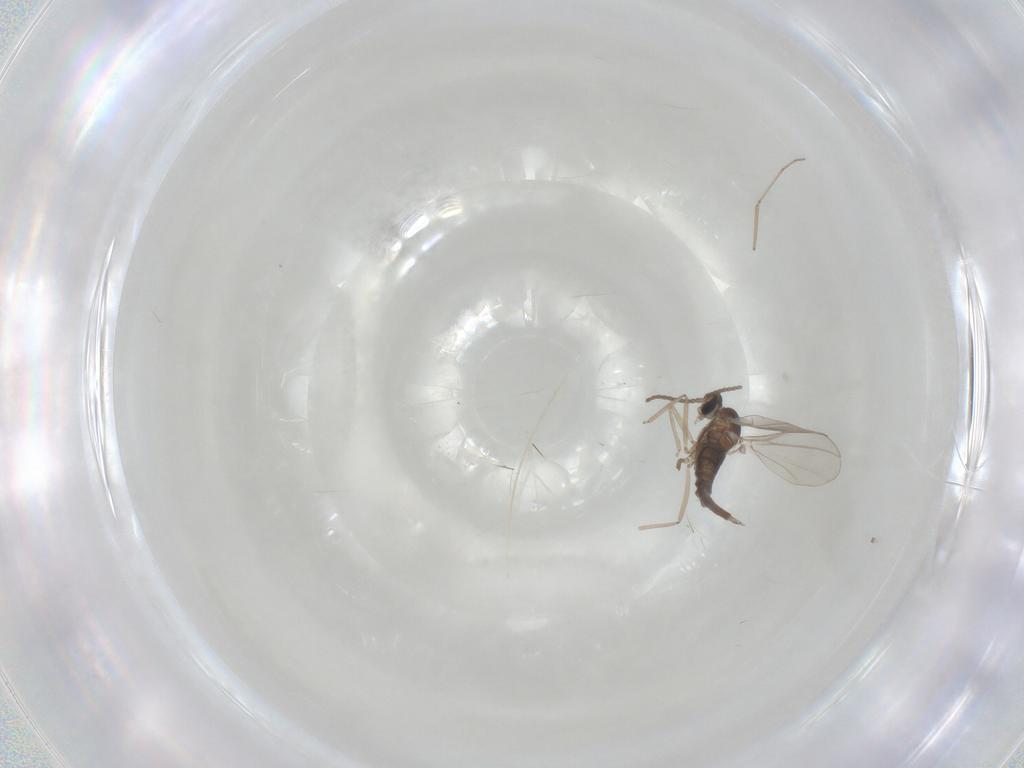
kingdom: Animalia
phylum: Arthropoda
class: Insecta
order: Diptera
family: Cecidomyiidae
